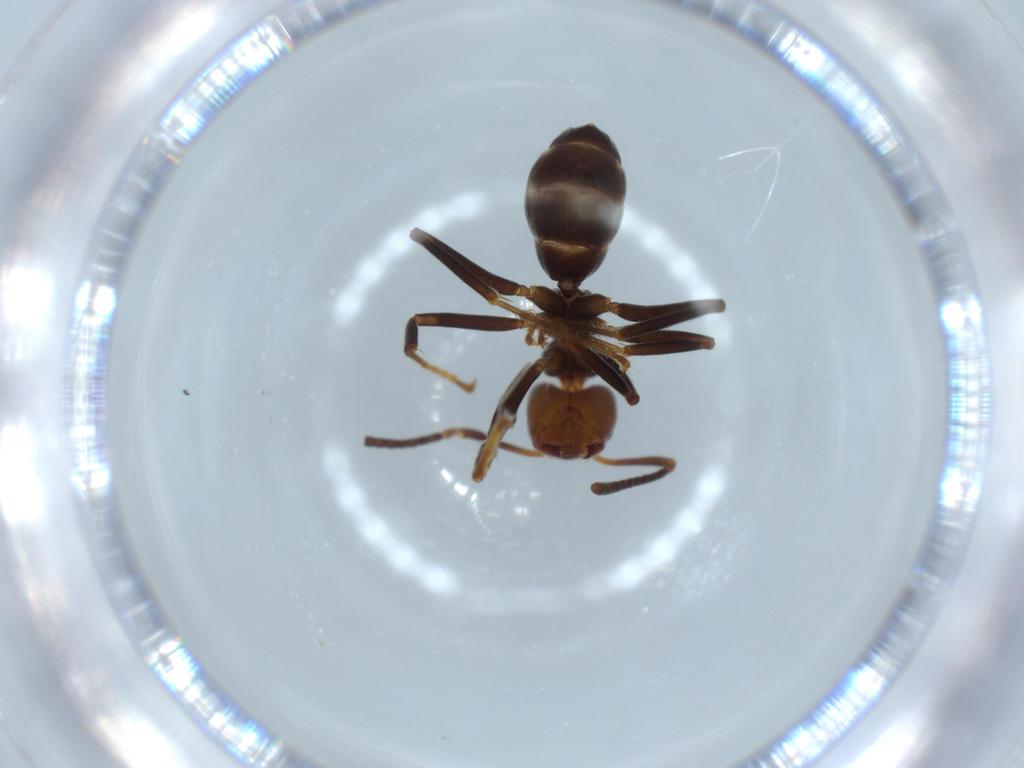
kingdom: Animalia
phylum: Arthropoda
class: Insecta
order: Hymenoptera
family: Formicidae
